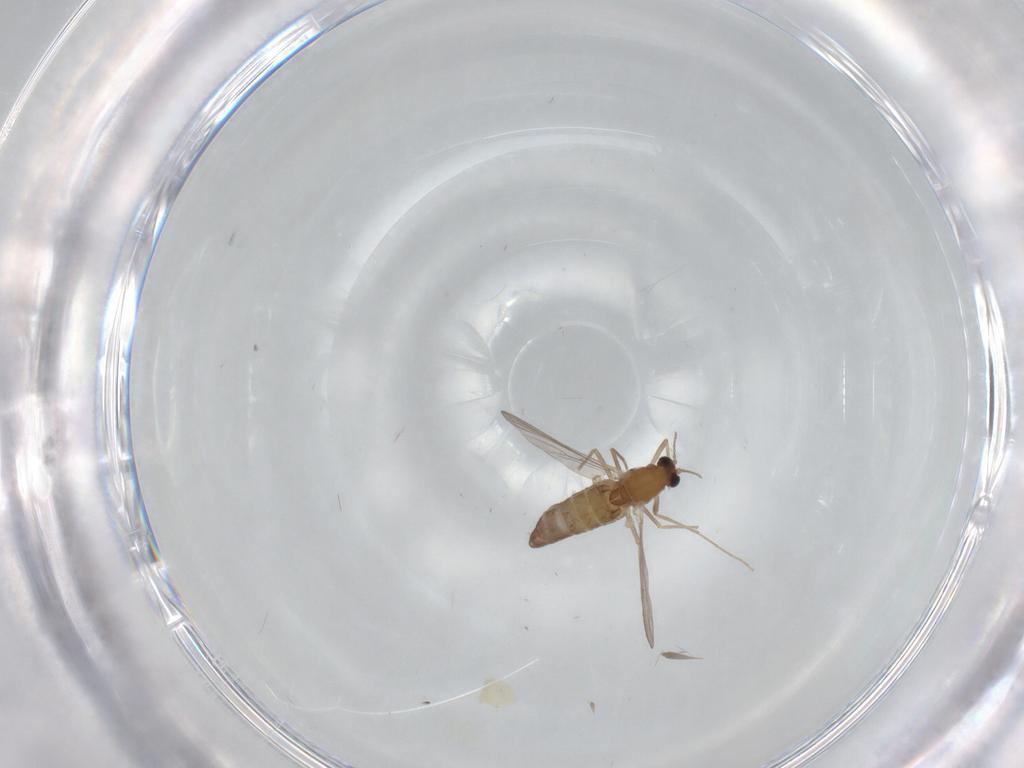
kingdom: Animalia
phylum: Arthropoda
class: Insecta
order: Diptera
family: Chironomidae
